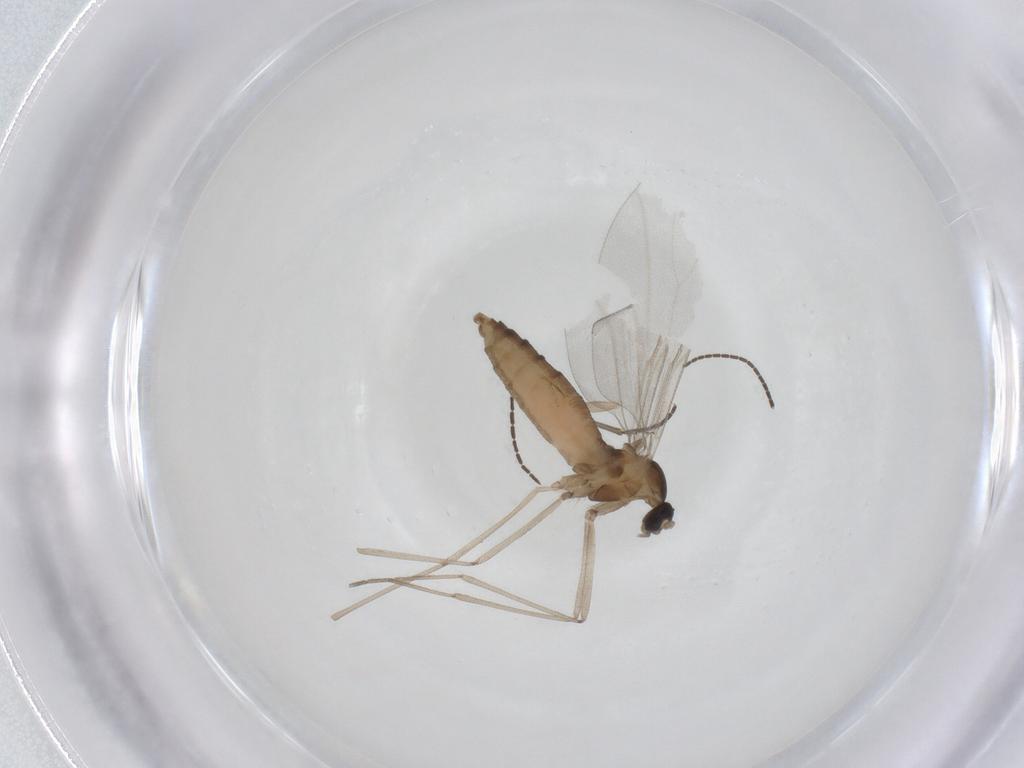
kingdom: Animalia
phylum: Arthropoda
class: Insecta
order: Diptera
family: Cecidomyiidae
